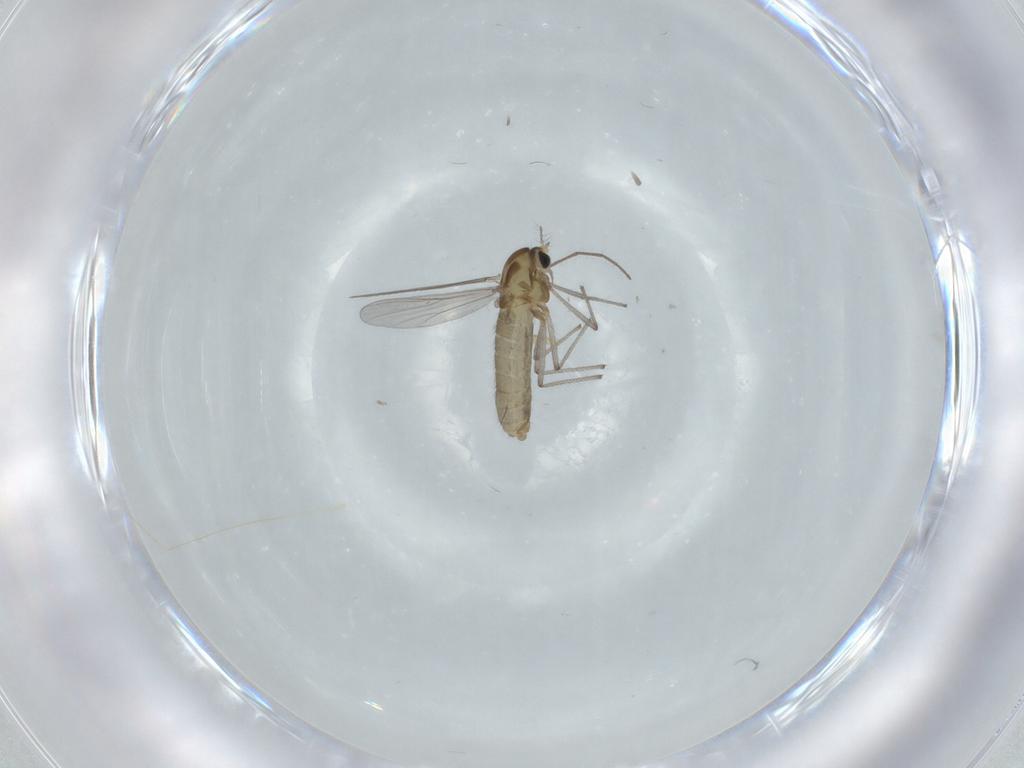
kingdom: Animalia
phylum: Arthropoda
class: Insecta
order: Diptera
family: Chironomidae
